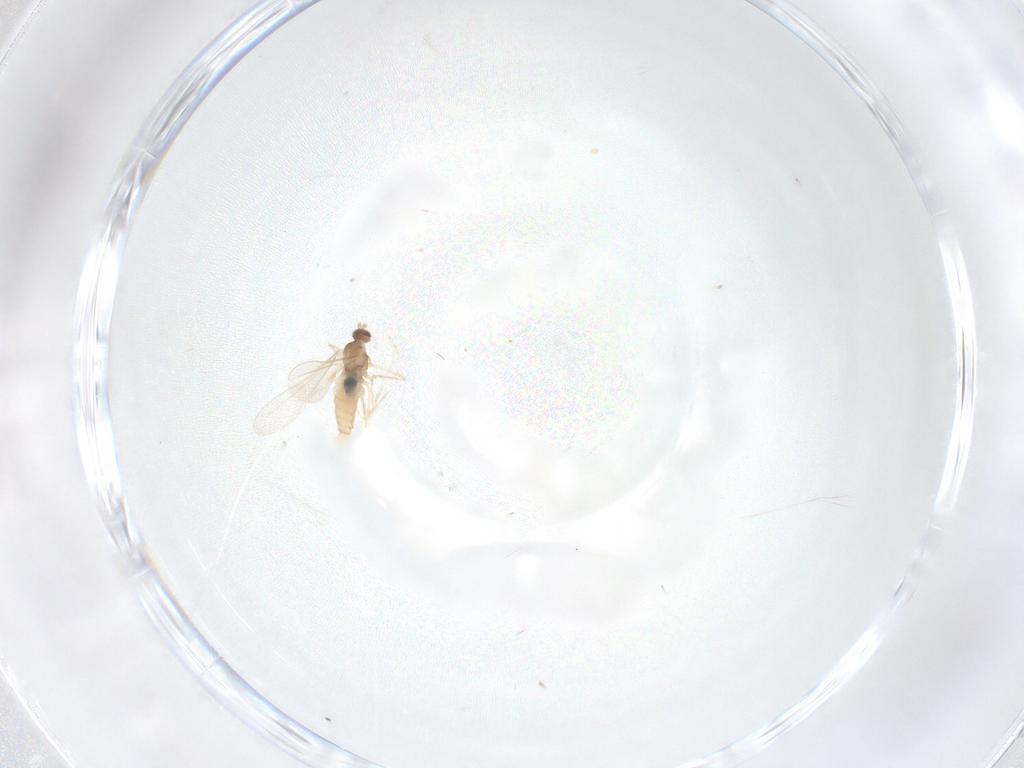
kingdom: Animalia
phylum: Arthropoda
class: Insecta
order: Diptera
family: Cecidomyiidae
